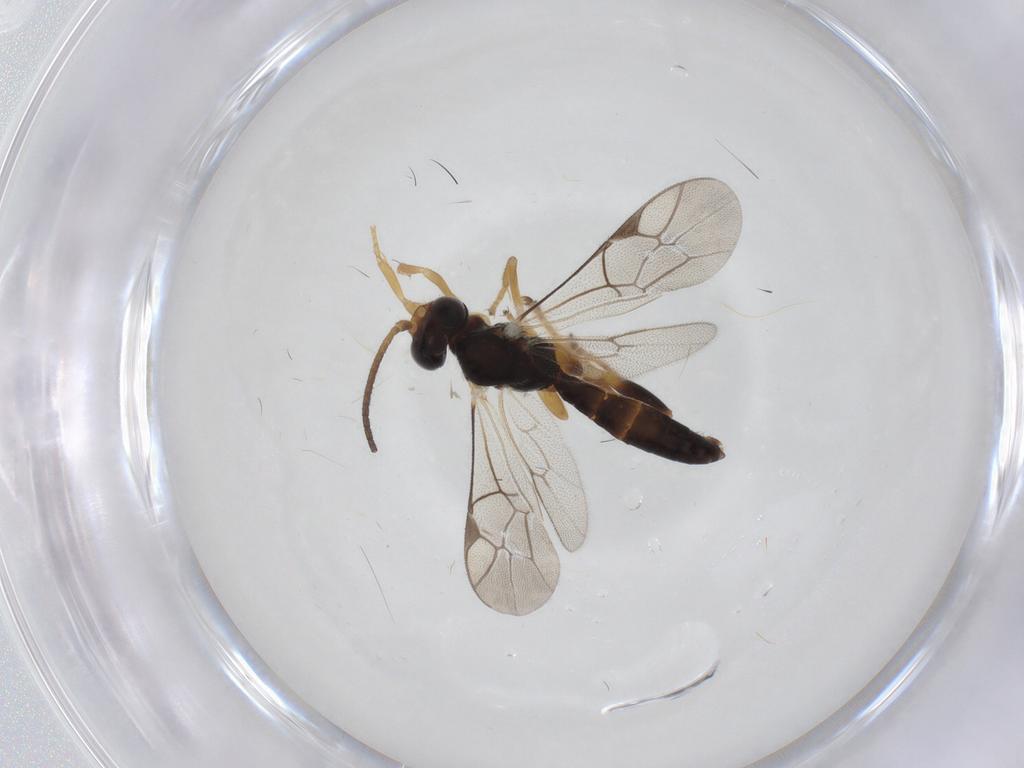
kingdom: Animalia
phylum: Arthropoda
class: Insecta
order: Hymenoptera
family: Ichneumonidae
